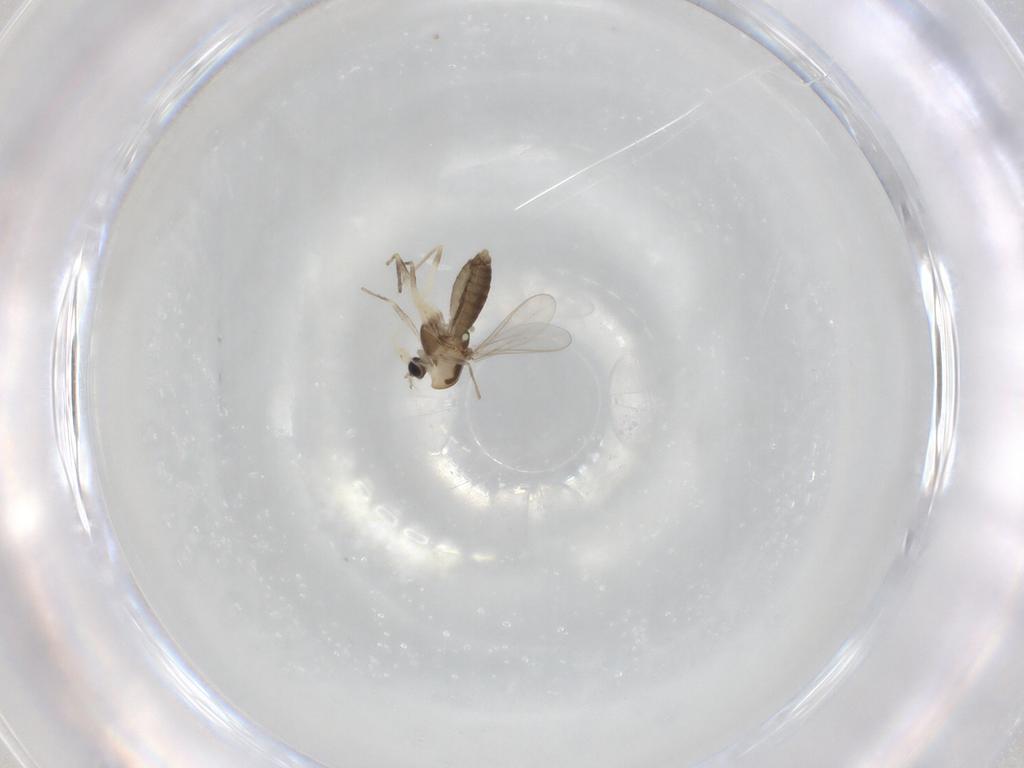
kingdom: Animalia
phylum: Arthropoda
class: Insecta
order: Diptera
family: Chironomidae
